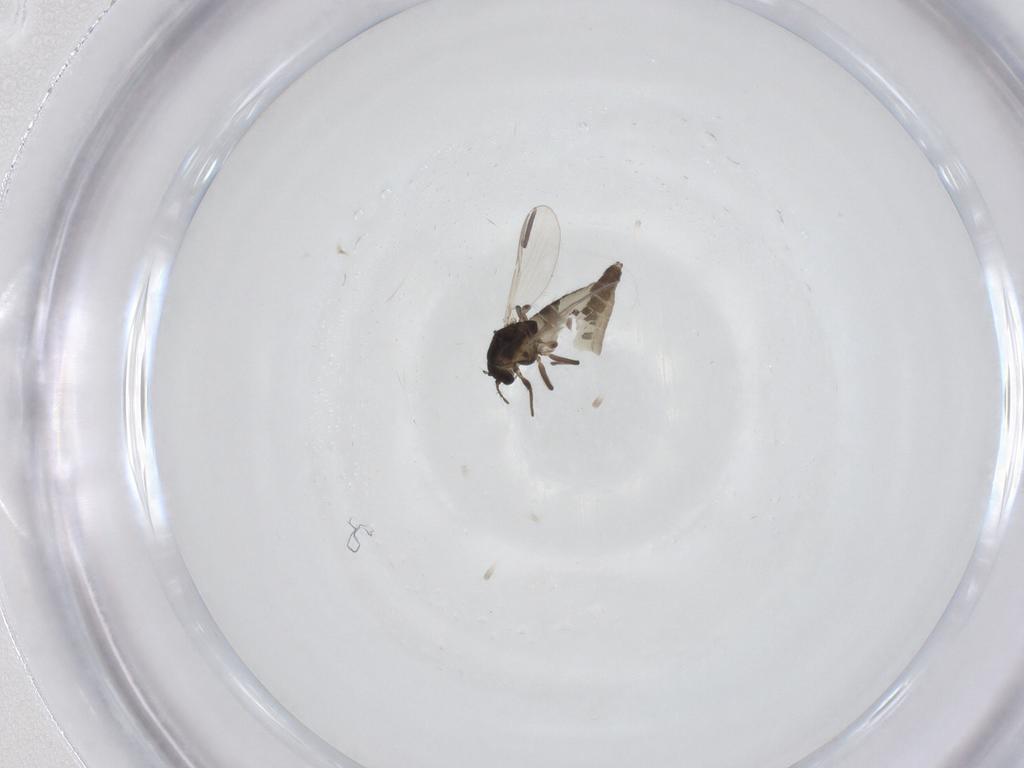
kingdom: Animalia
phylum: Arthropoda
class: Insecta
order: Diptera
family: Chironomidae
